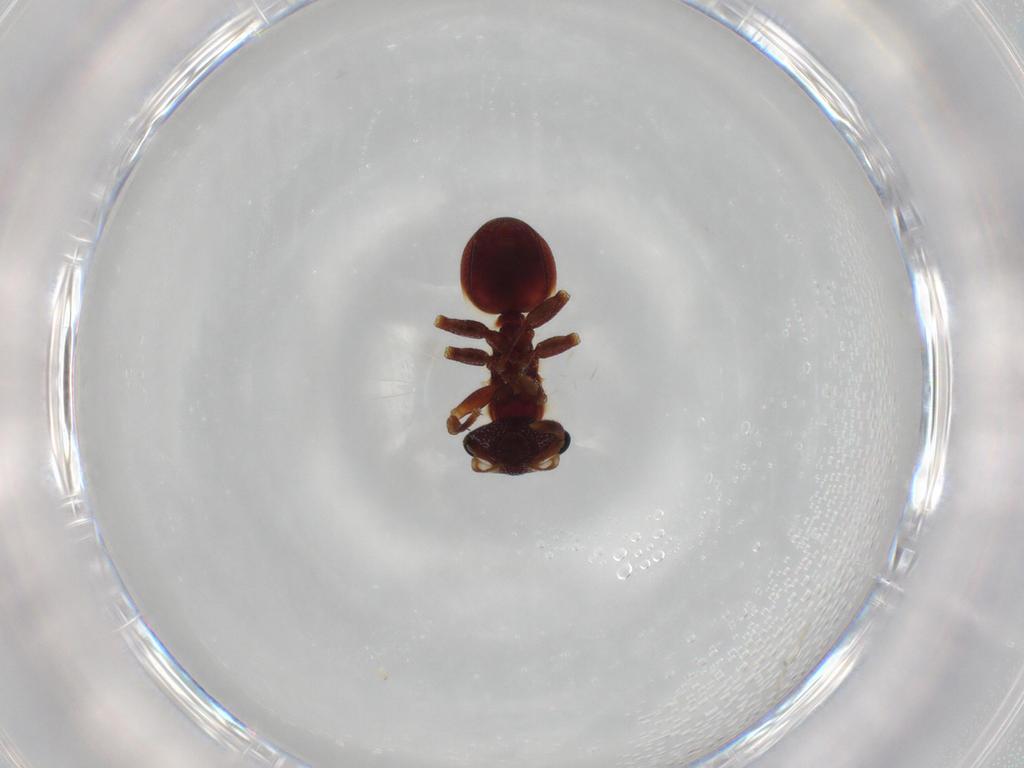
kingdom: Animalia
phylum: Arthropoda
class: Insecta
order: Hymenoptera
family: Formicidae
